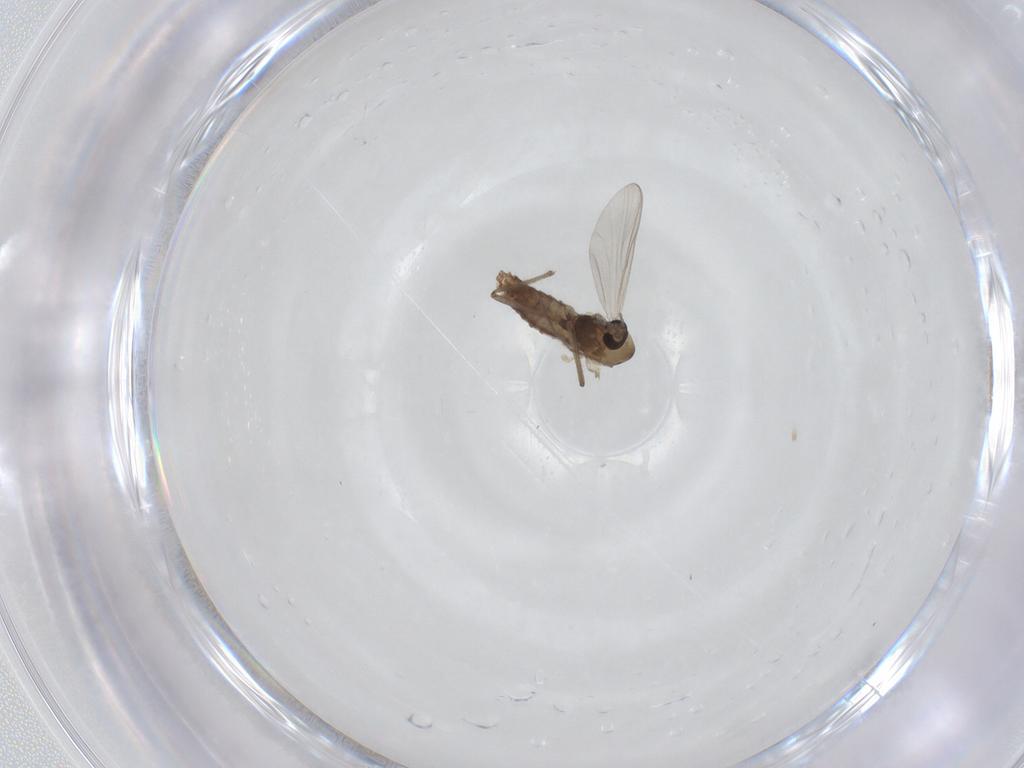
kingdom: Animalia
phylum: Arthropoda
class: Insecta
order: Diptera
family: Chironomidae
